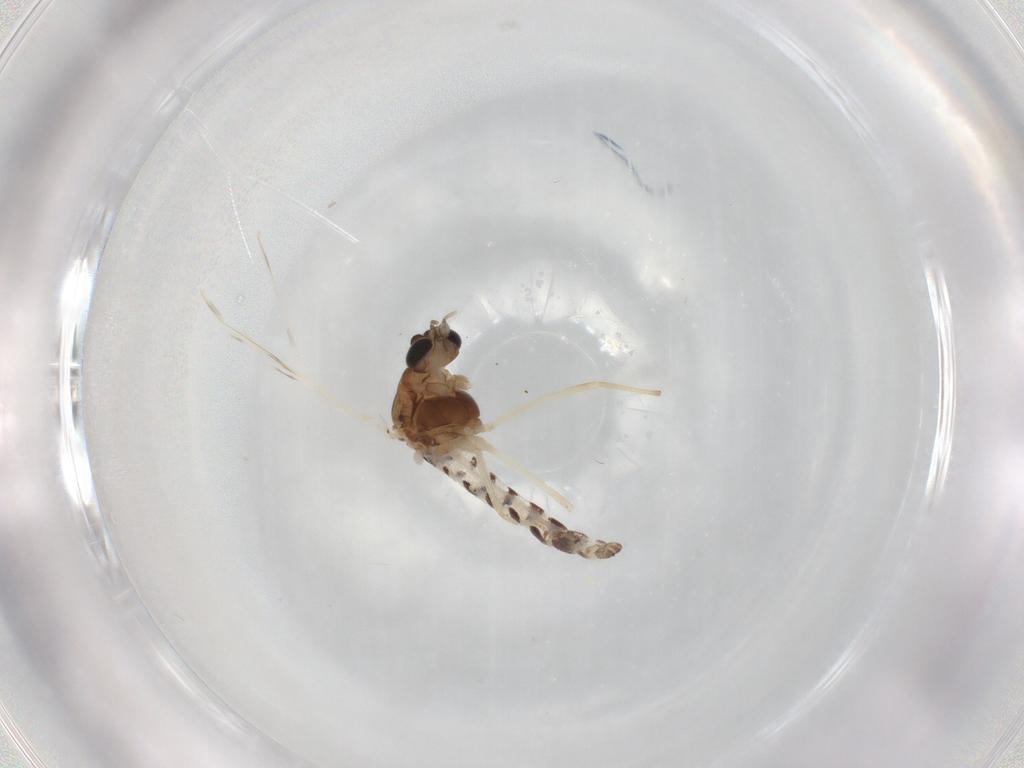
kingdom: Animalia
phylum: Arthropoda
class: Insecta
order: Diptera
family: Chironomidae
